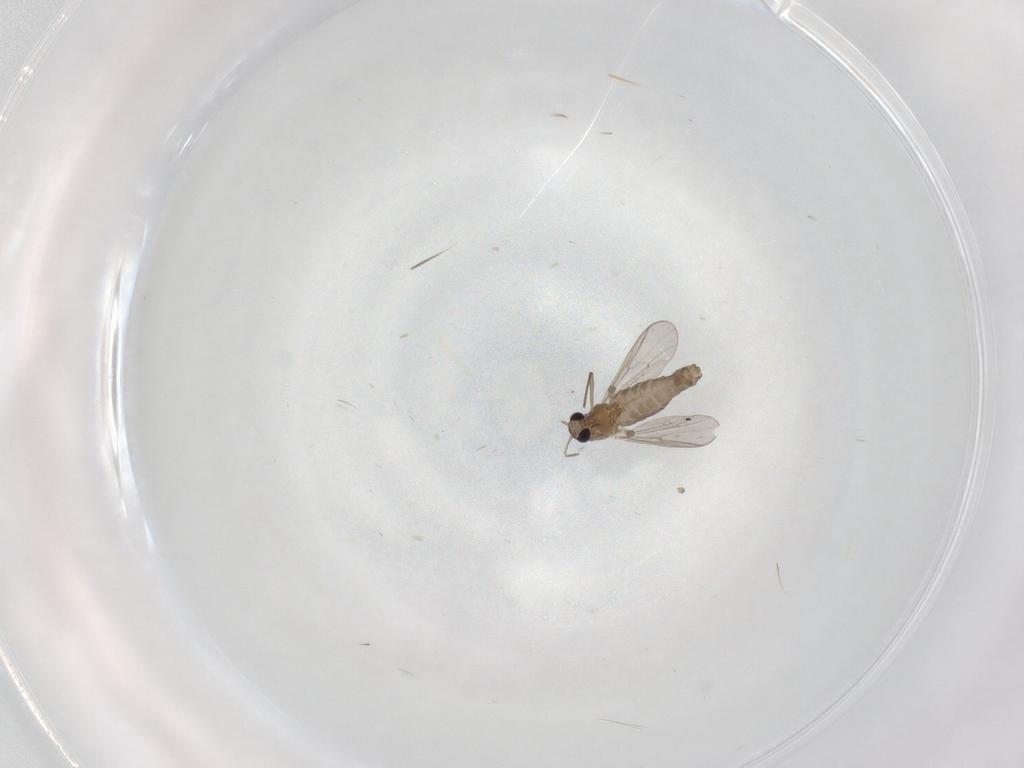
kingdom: Animalia
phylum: Arthropoda
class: Insecta
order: Diptera
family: Chironomidae
